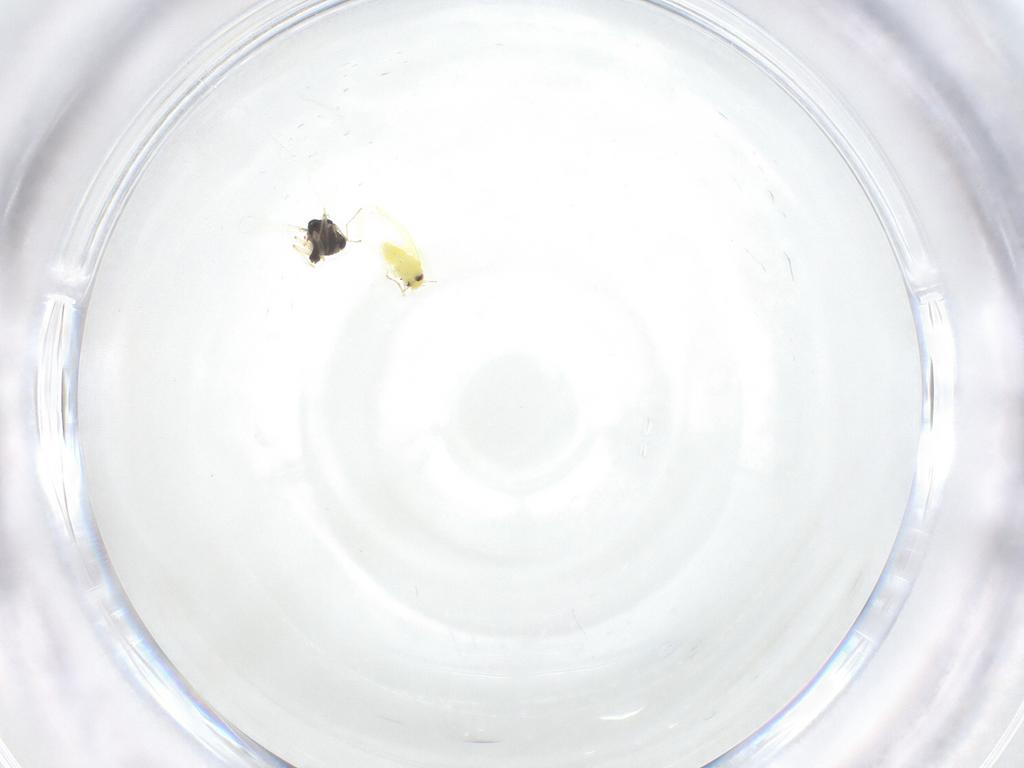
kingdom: Animalia
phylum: Arthropoda
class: Insecta
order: Diptera
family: Chironomidae
